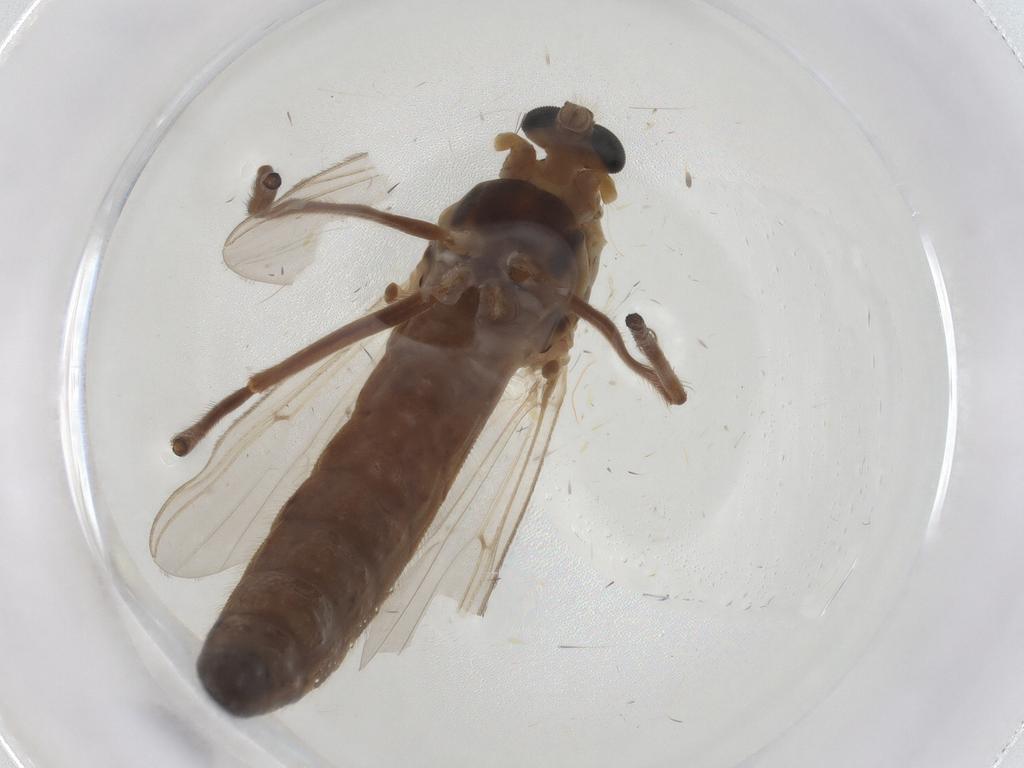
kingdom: Animalia
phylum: Arthropoda
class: Insecta
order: Diptera
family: Cecidomyiidae
